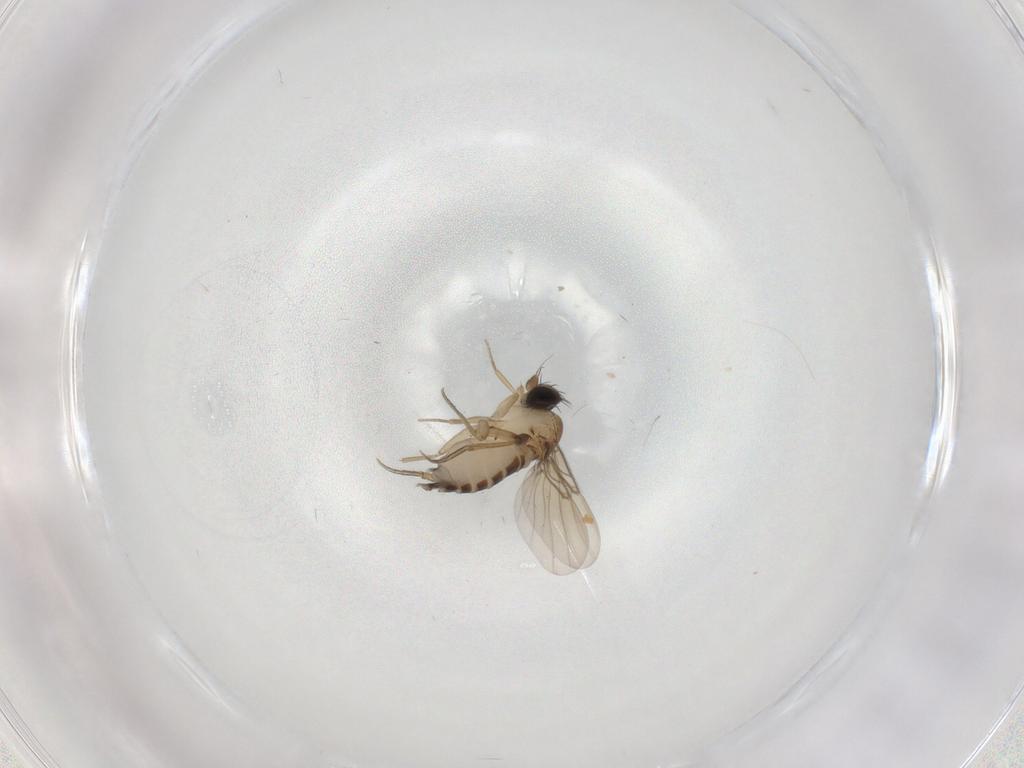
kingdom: Animalia
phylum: Arthropoda
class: Insecta
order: Diptera
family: Phoridae
